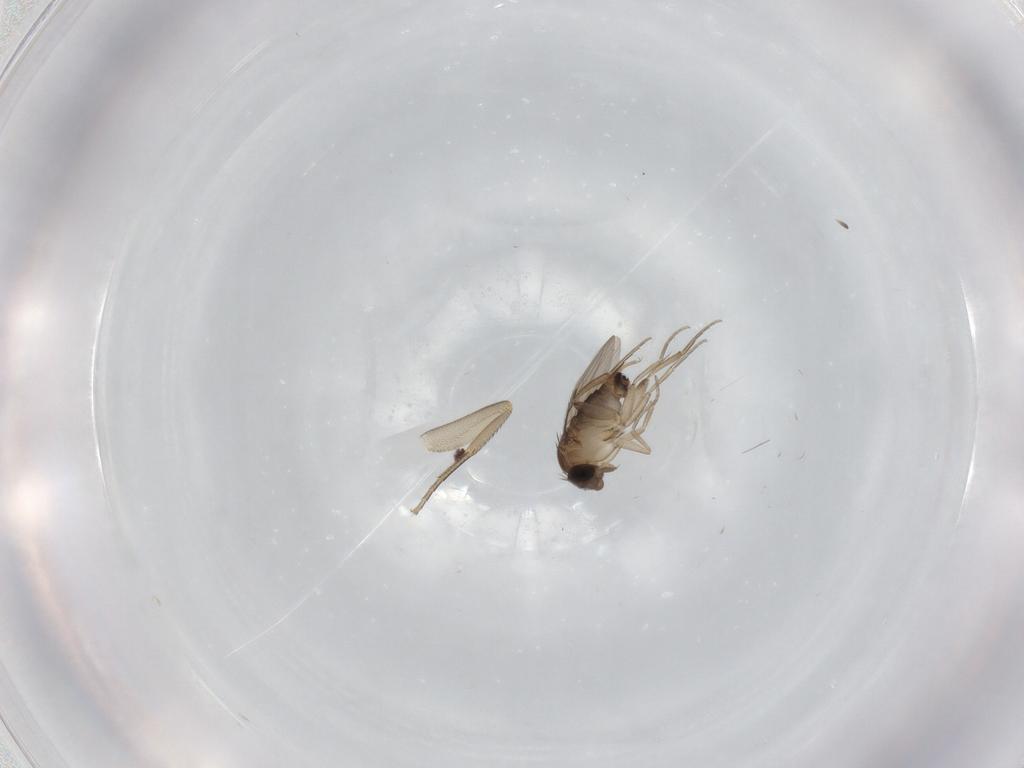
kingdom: Animalia
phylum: Arthropoda
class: Insecta
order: Diptera
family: Phoridae
